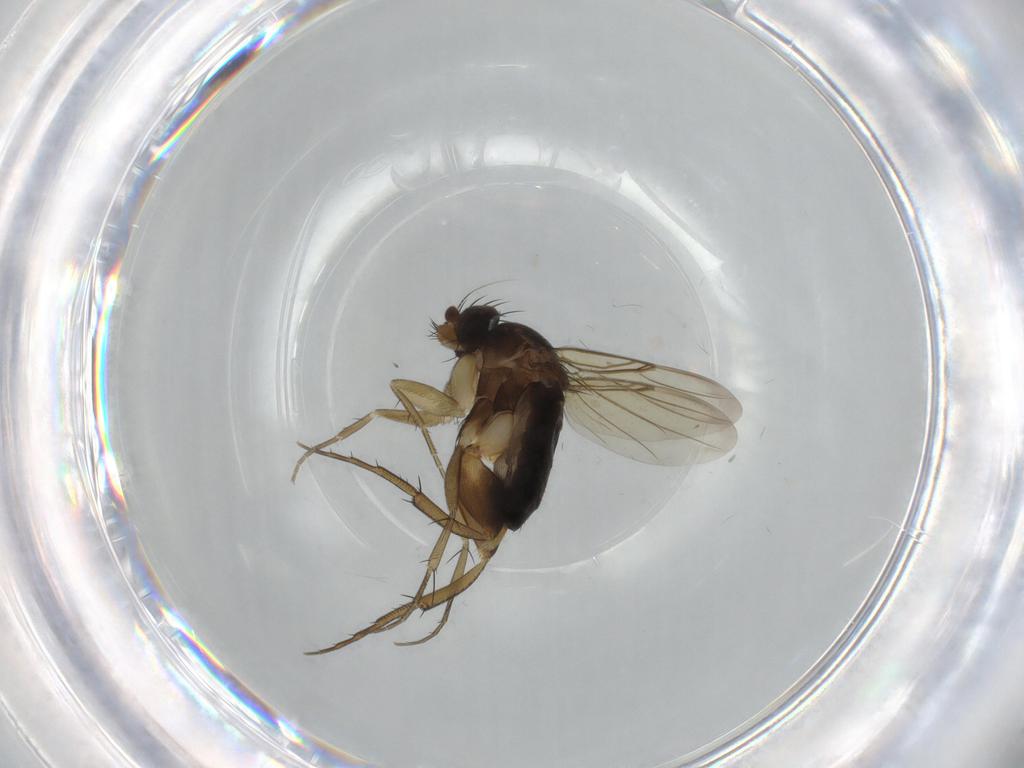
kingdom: Animalia
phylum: Arthropoda
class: Insecta
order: Diptera
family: Phoridae
